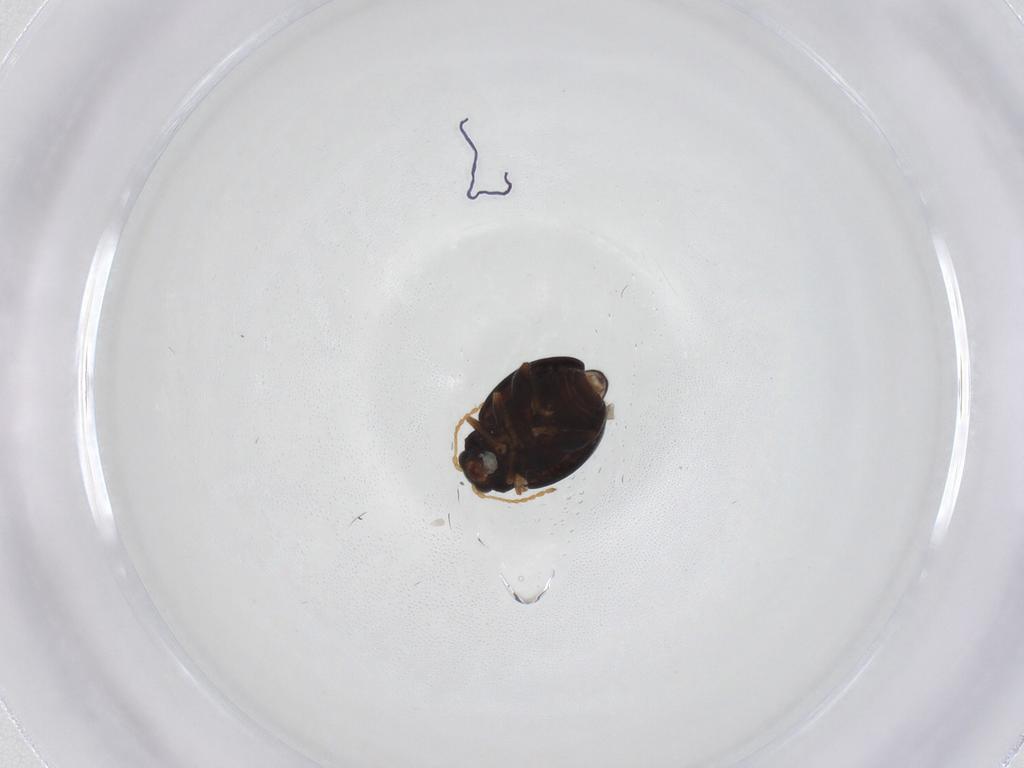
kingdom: Animalia
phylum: Arthropoda
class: Insecta
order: Coleoptera
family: Chrysomelidae
